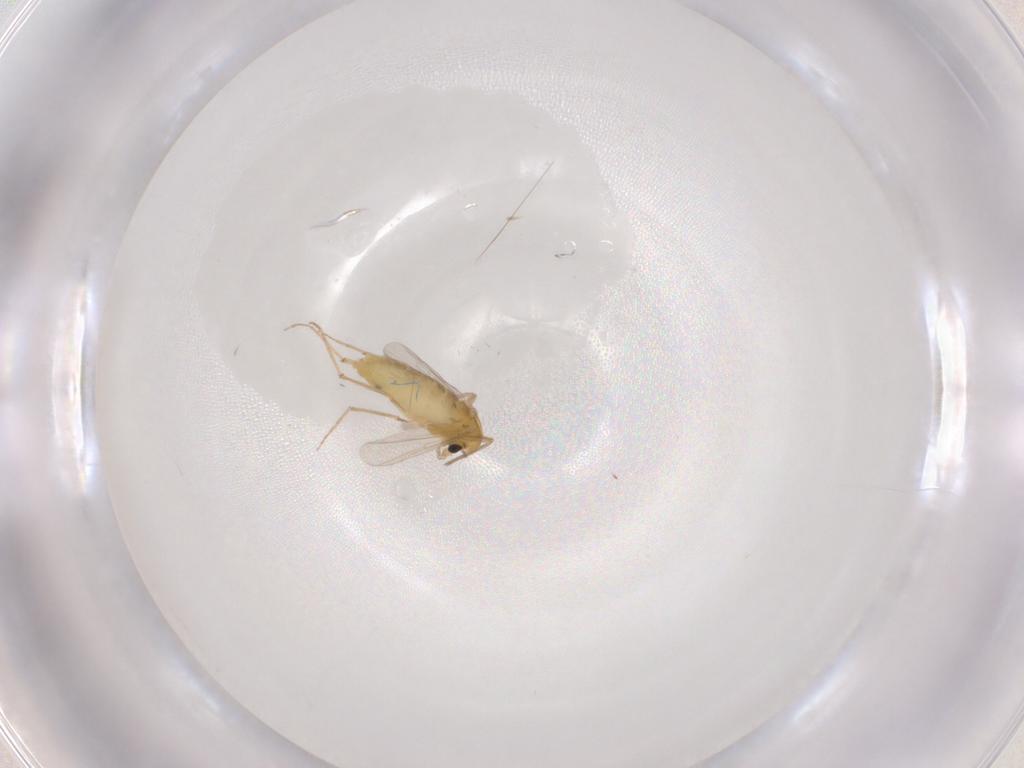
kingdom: Animalia
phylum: Arthropoda
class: Insecta
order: Diptera
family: Chironomidae
